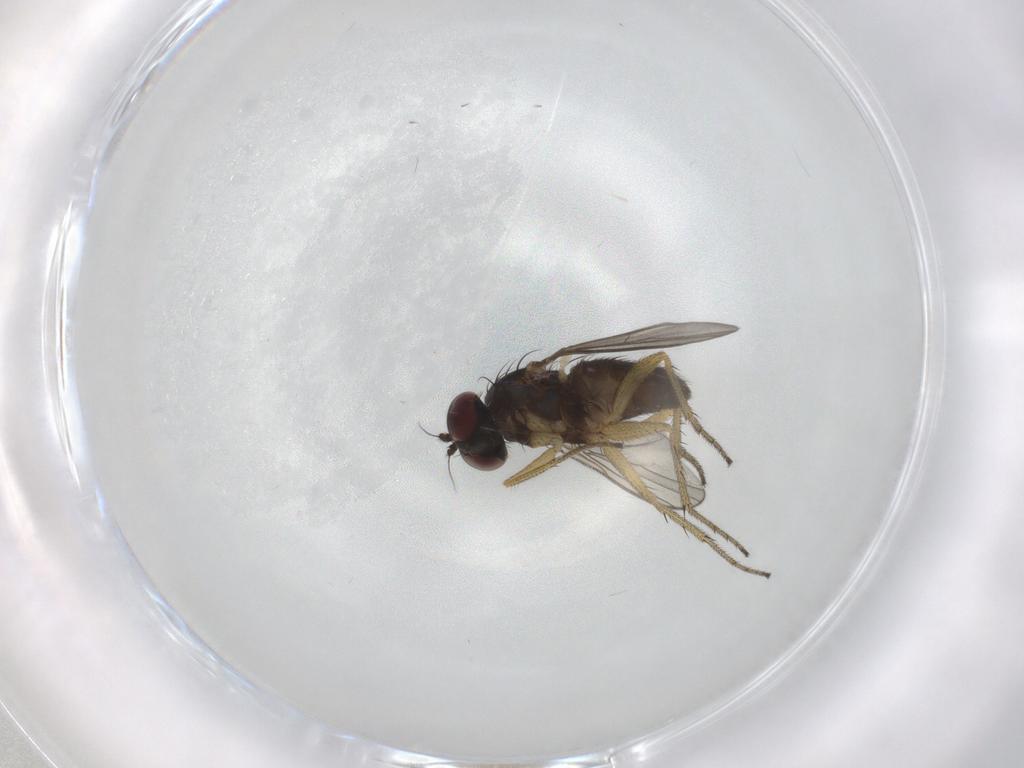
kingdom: Animalia
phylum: Arthropoda
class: Insecta
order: Diptera
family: Dolichopodidae
